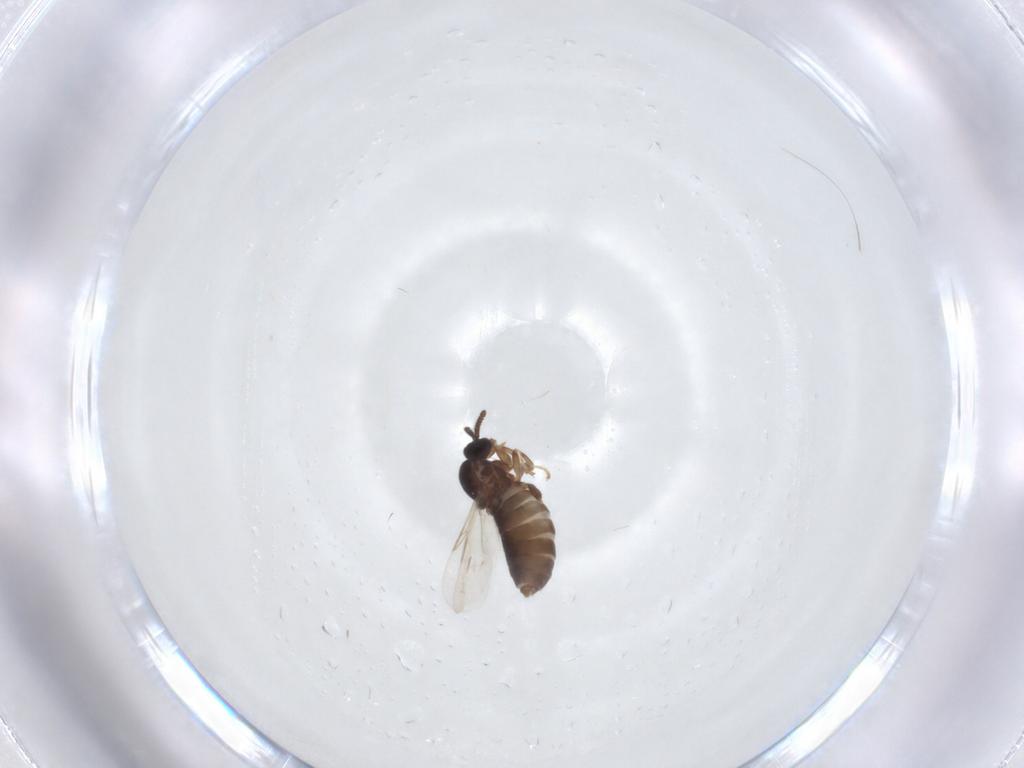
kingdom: Animalia
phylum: Arthropoda
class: Insecta
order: Diptera
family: Scatopsidae
